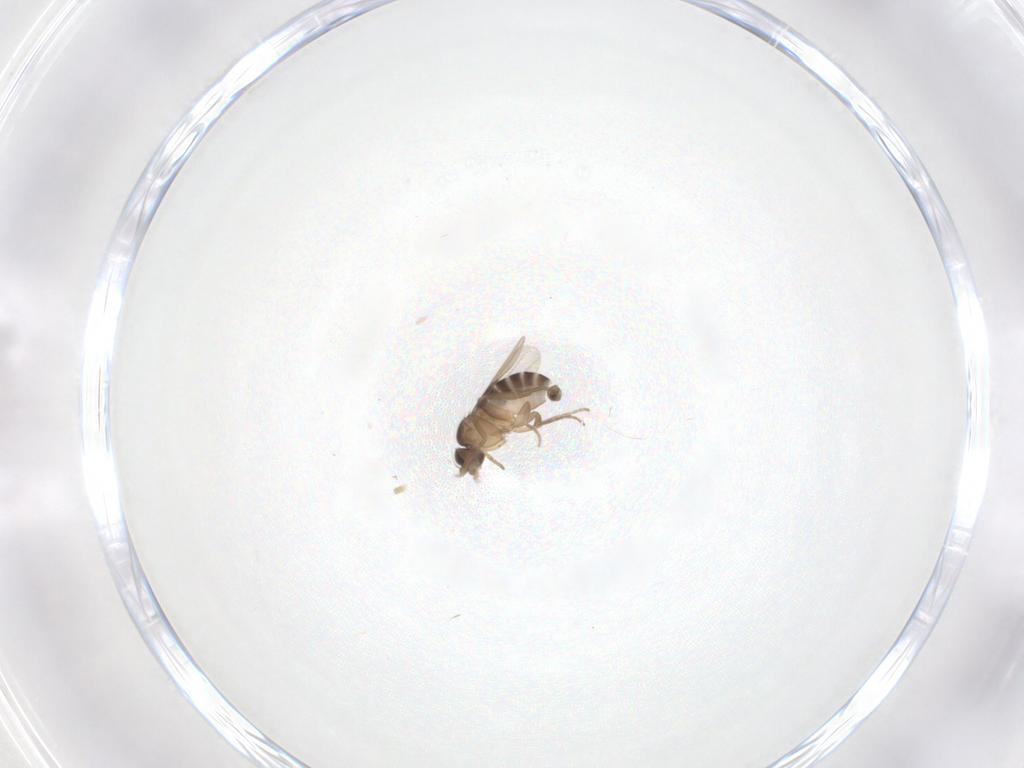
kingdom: Animalia
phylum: Arthropoda
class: Insecta
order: Diptera
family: Phoridae
